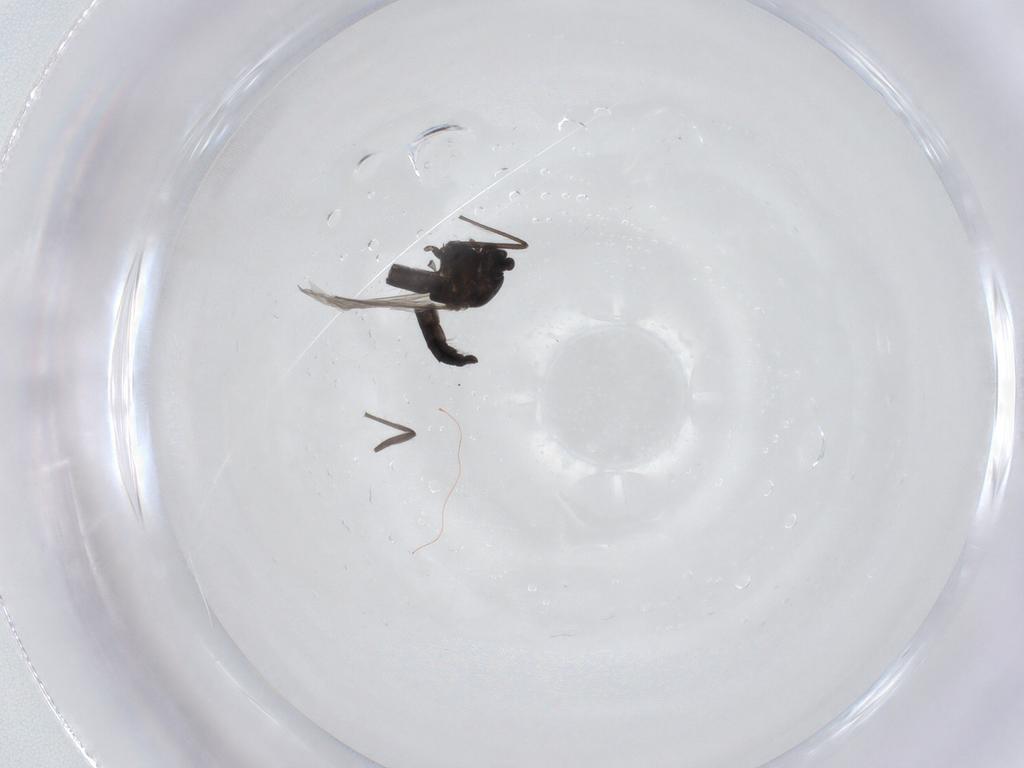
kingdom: Animalia
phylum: Arthropoda
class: Insecta
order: Diptera
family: Chironomidae
